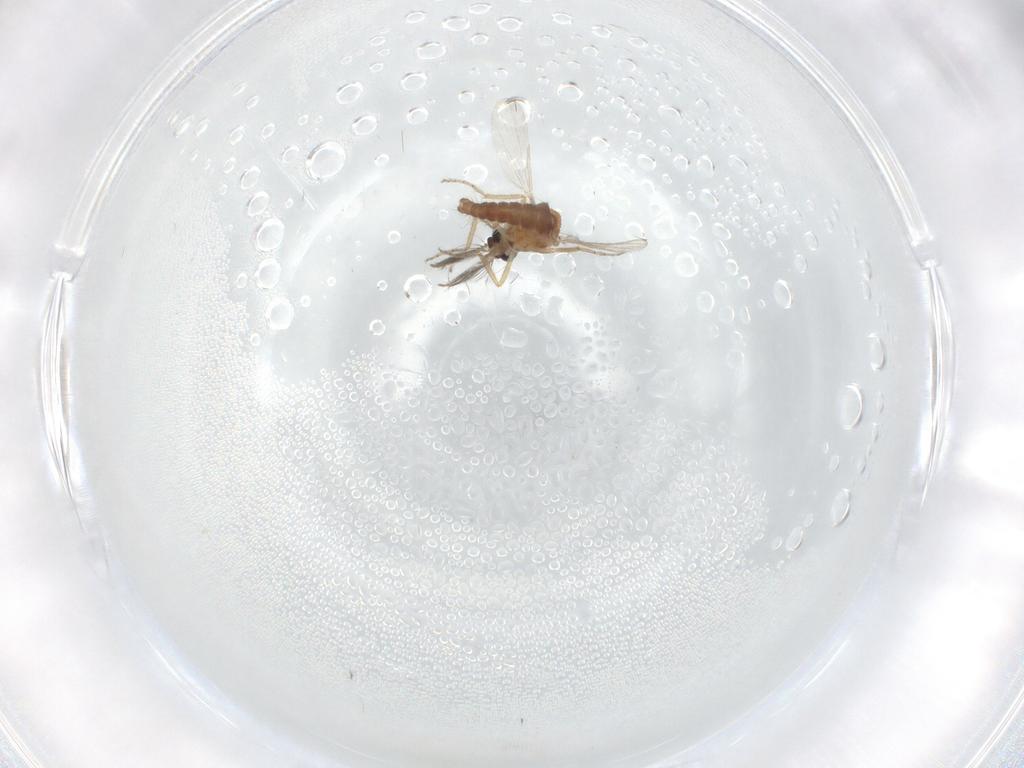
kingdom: Animalia
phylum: Arthropoda
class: Insecta
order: Diptera
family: Ceratopogonidae
